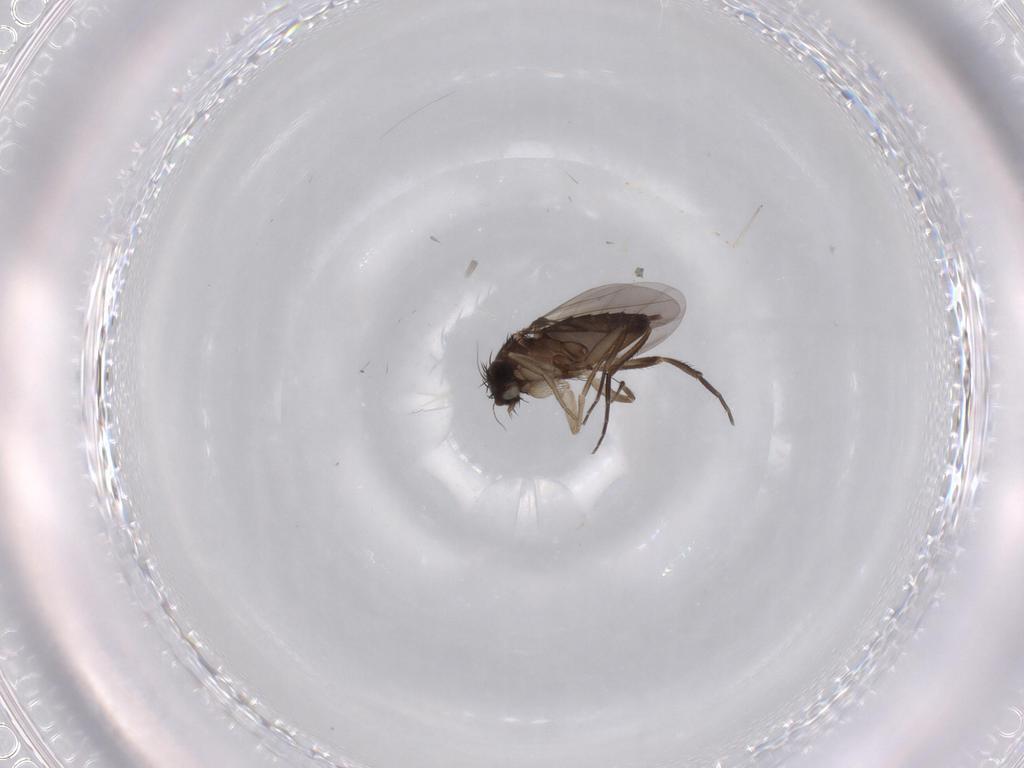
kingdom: Animalia
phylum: Arthropoda
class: Insecta
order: Diptera
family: Phoridae
